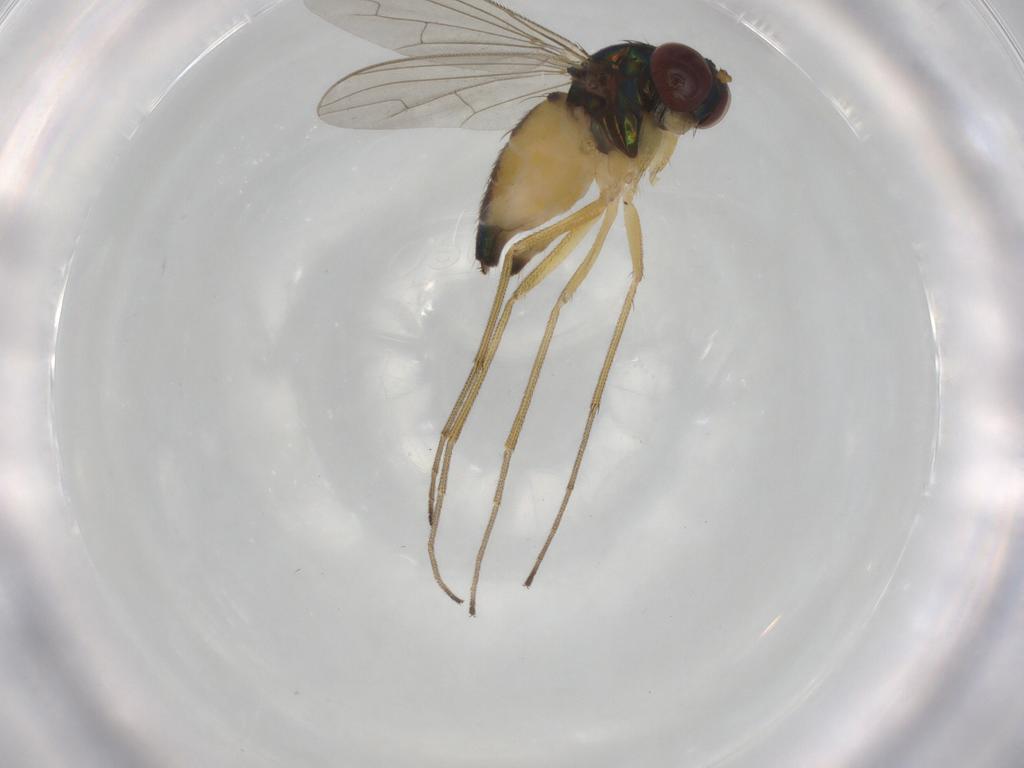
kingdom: Animalia
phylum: Arthropoda
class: Insecta
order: Diptera
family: Dolichopodidae
